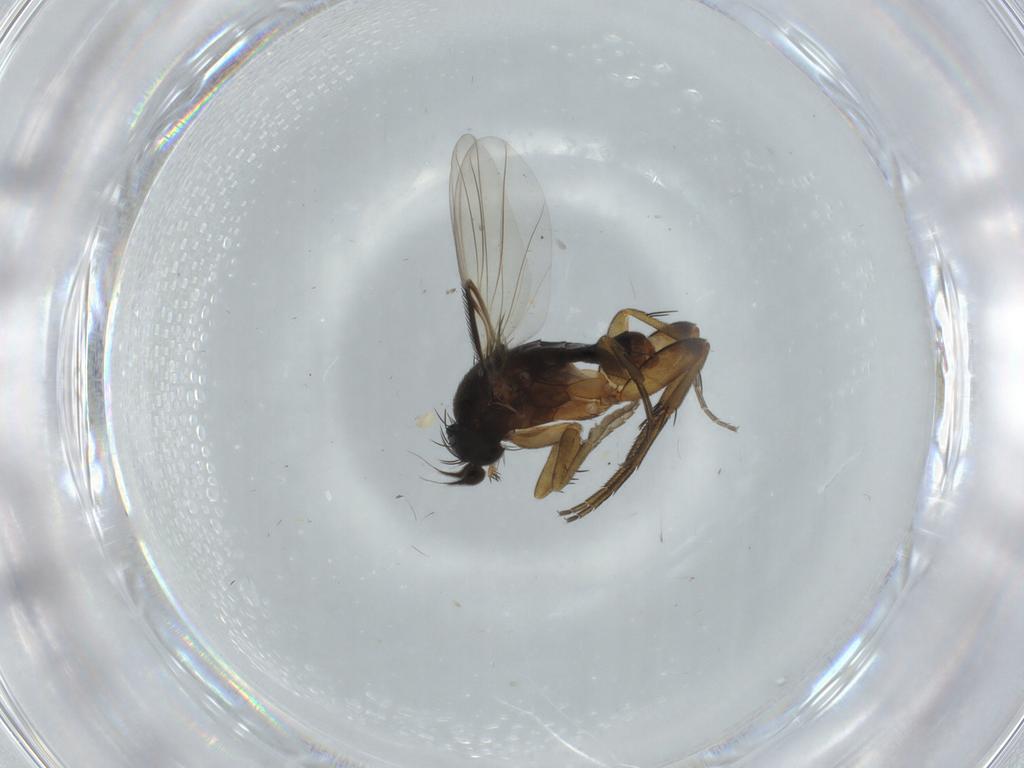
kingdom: Animalia
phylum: Arthropoda
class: Insecta
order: Diptera
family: Phoridae
